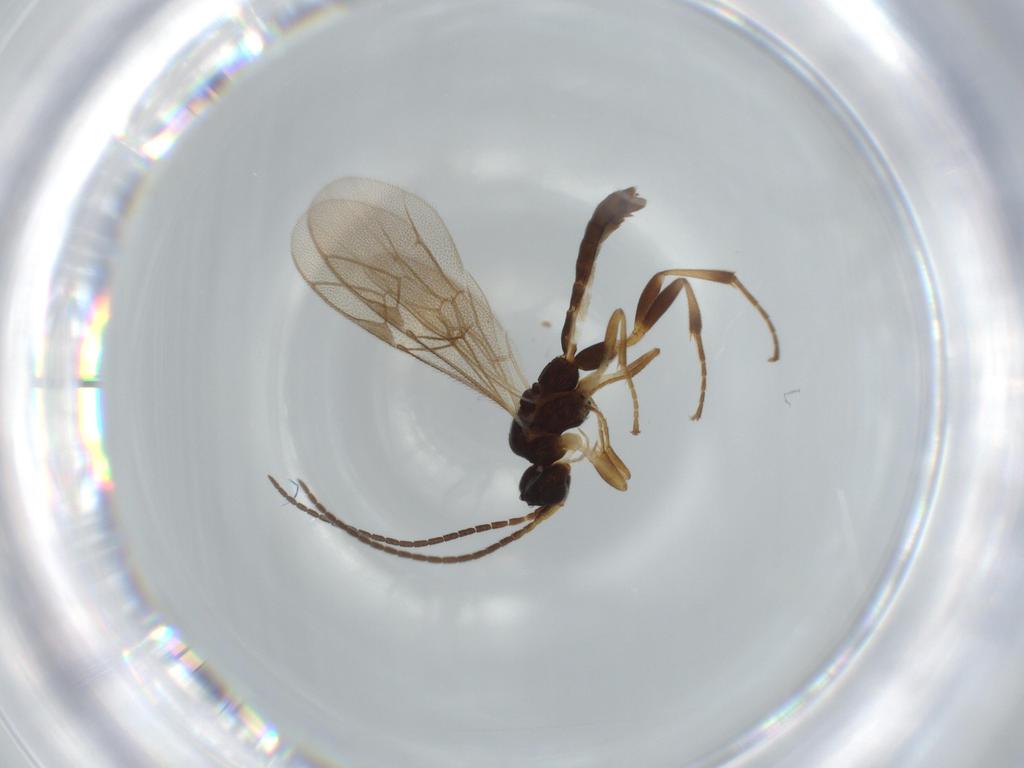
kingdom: Animalia
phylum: Arthropoda
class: Insecta
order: Hymenoptera
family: Ichneumonidae
